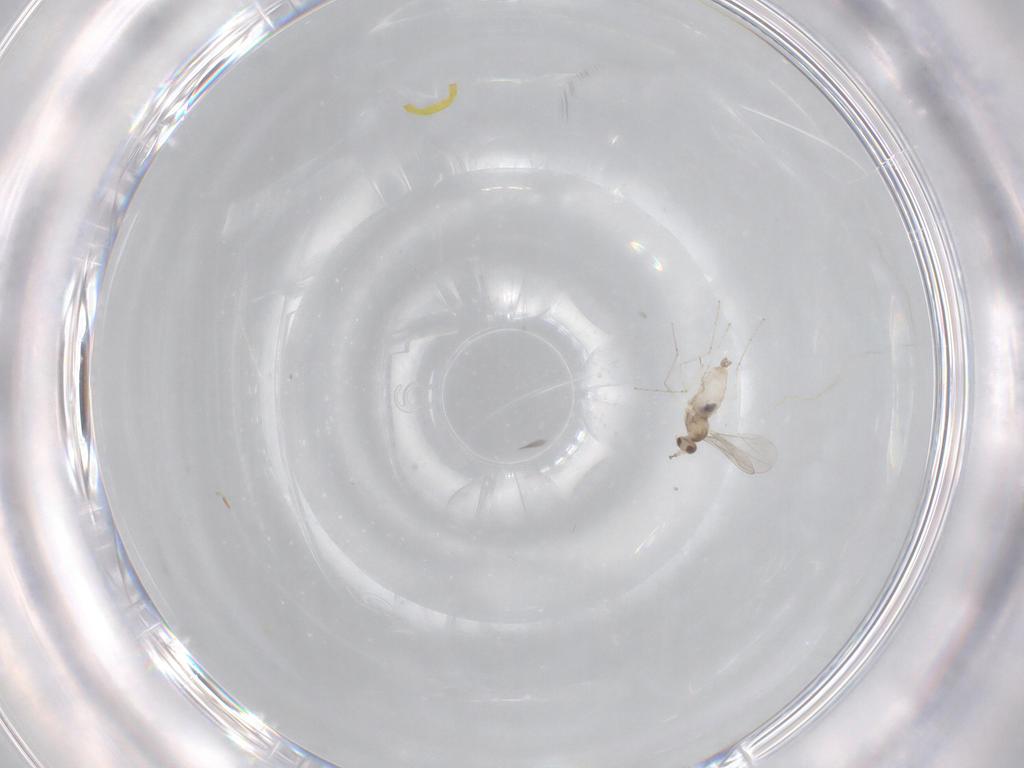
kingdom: Animalia
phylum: Arthropoda
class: Insecta
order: Diptera
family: Cecidomyiidae
